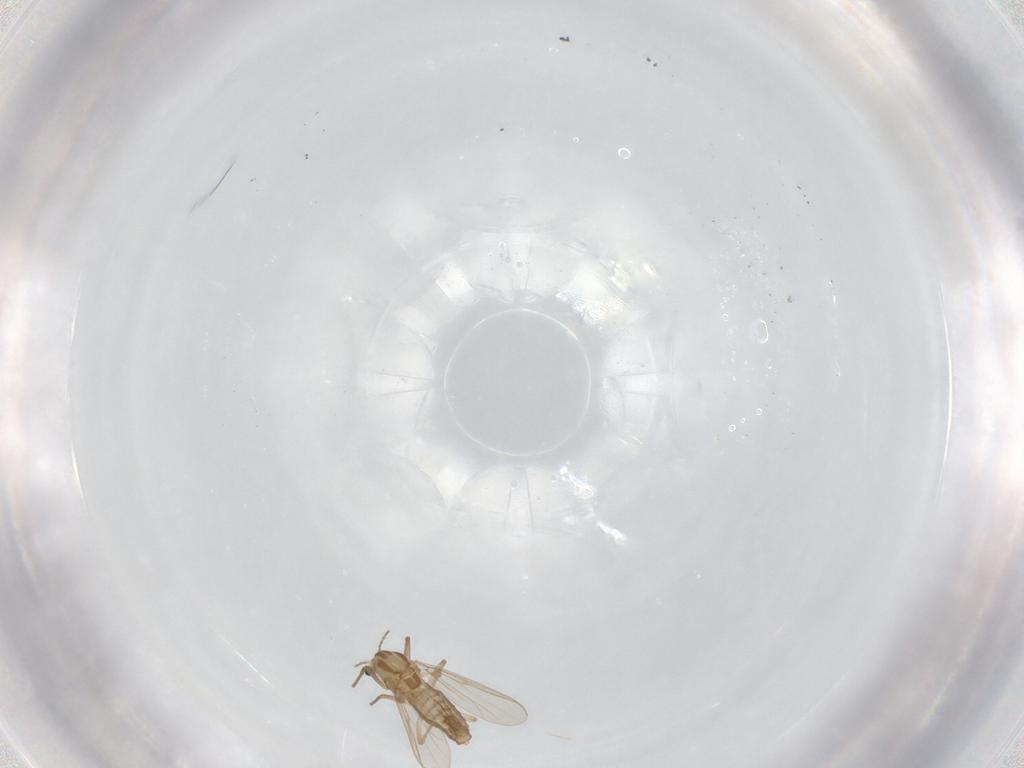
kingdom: Animalia
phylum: Arthropoda
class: Insecta
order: Diptera
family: Chironomidae
